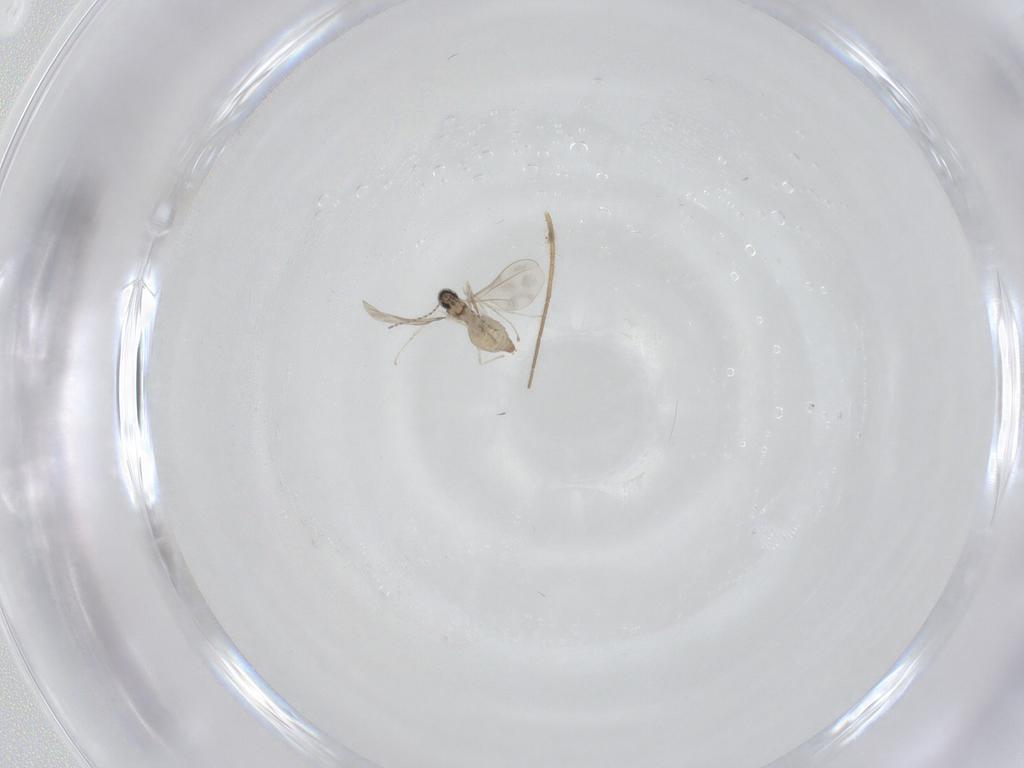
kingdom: Animalia
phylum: Arthropoda
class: Insecta
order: Diptera
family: Cecidomyiidae
